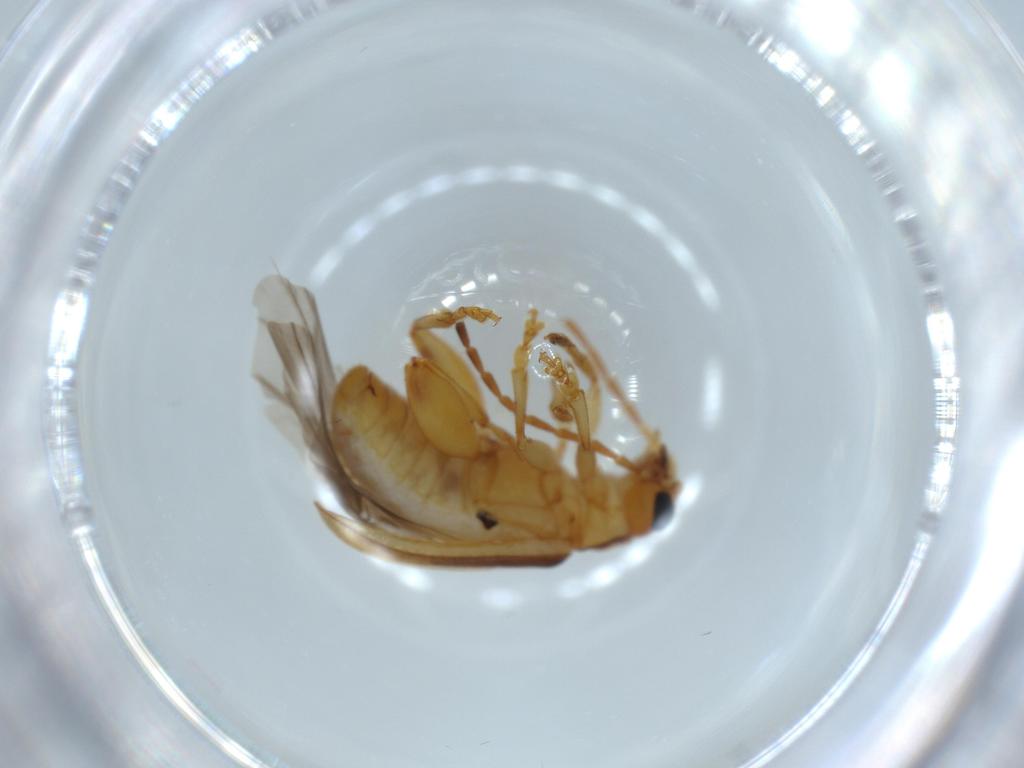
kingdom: Animalia
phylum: Arthropoda
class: Insecta
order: Coleoptera
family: Chrysomelidae
